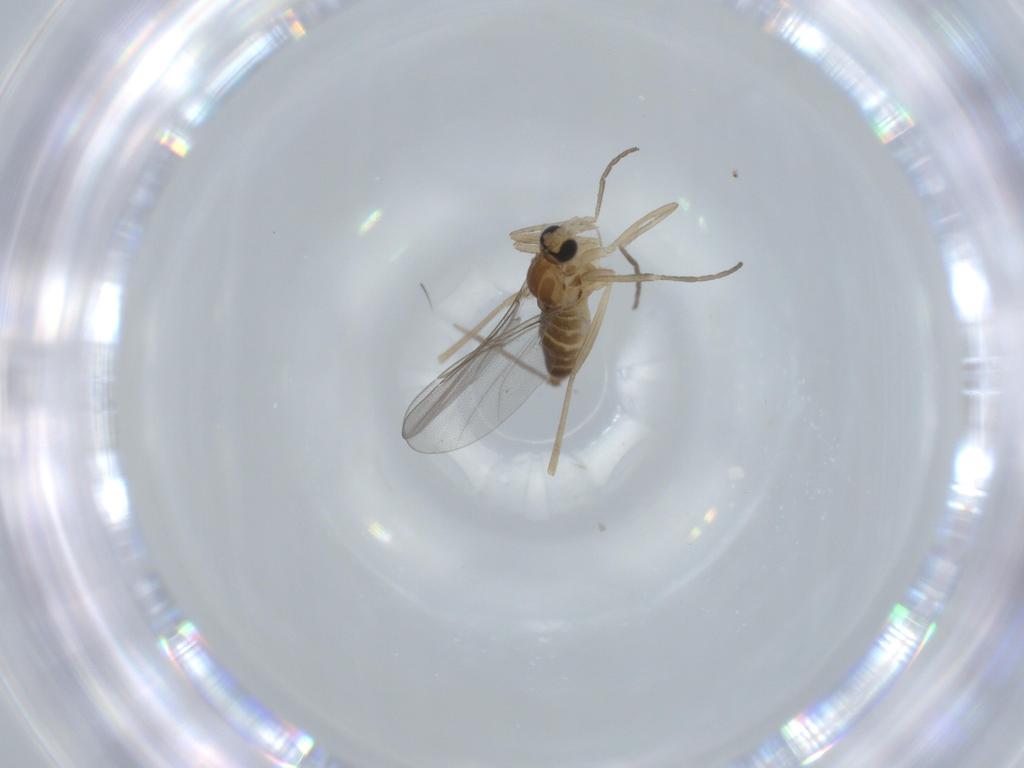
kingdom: Animalia
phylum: Arthropoda
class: Insecta
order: Diptera
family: Cecidomyiidae
